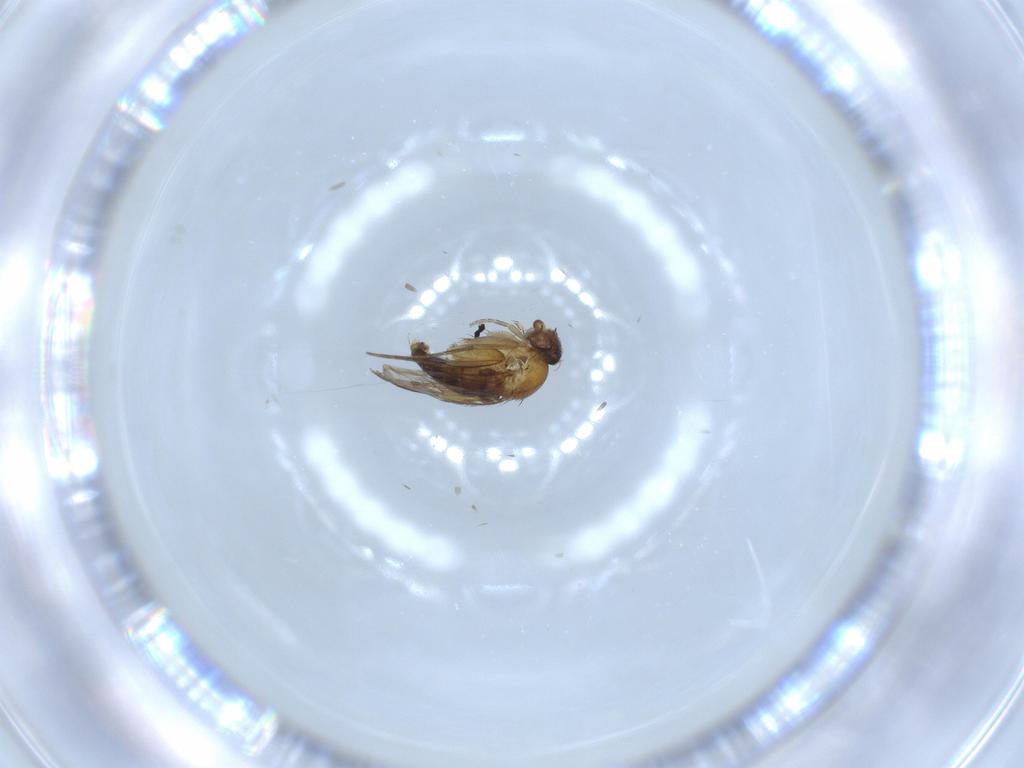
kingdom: Animalia
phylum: Arthropoda
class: Insecta
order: Diptera
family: Phoridae
